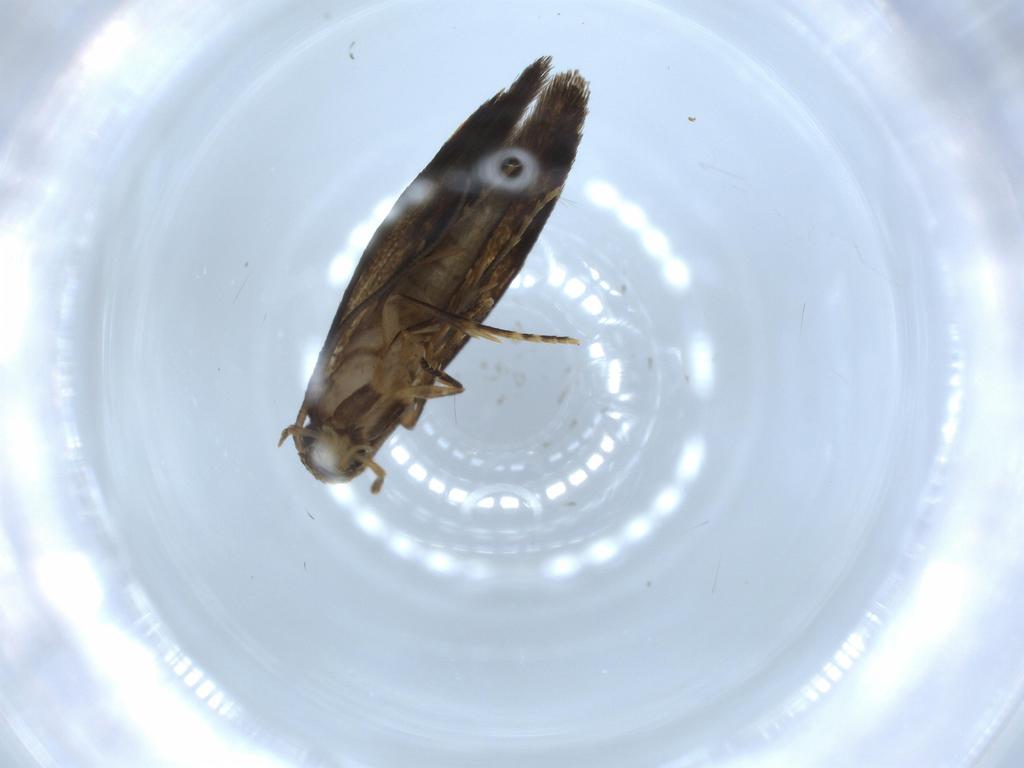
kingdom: Animalia
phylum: Arthropoda
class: Insecta
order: Lepidoptera
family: Tineidae
